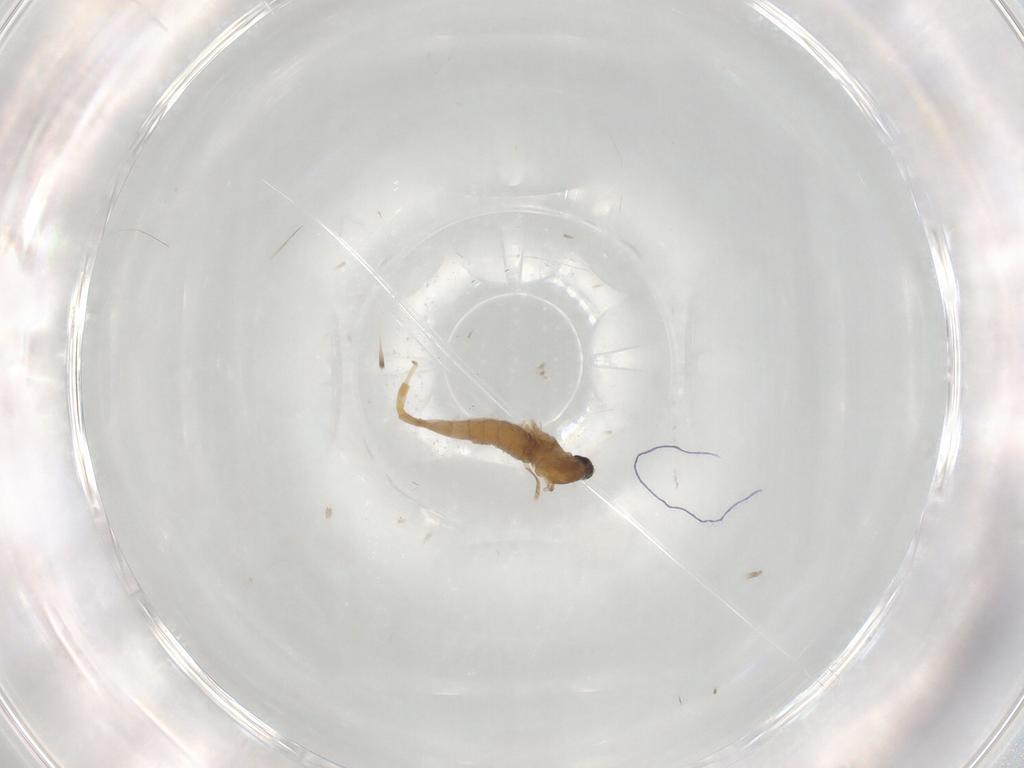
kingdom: Animalia
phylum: Arthropoda
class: Insecta
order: Diptera
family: Cecidomyiidae
